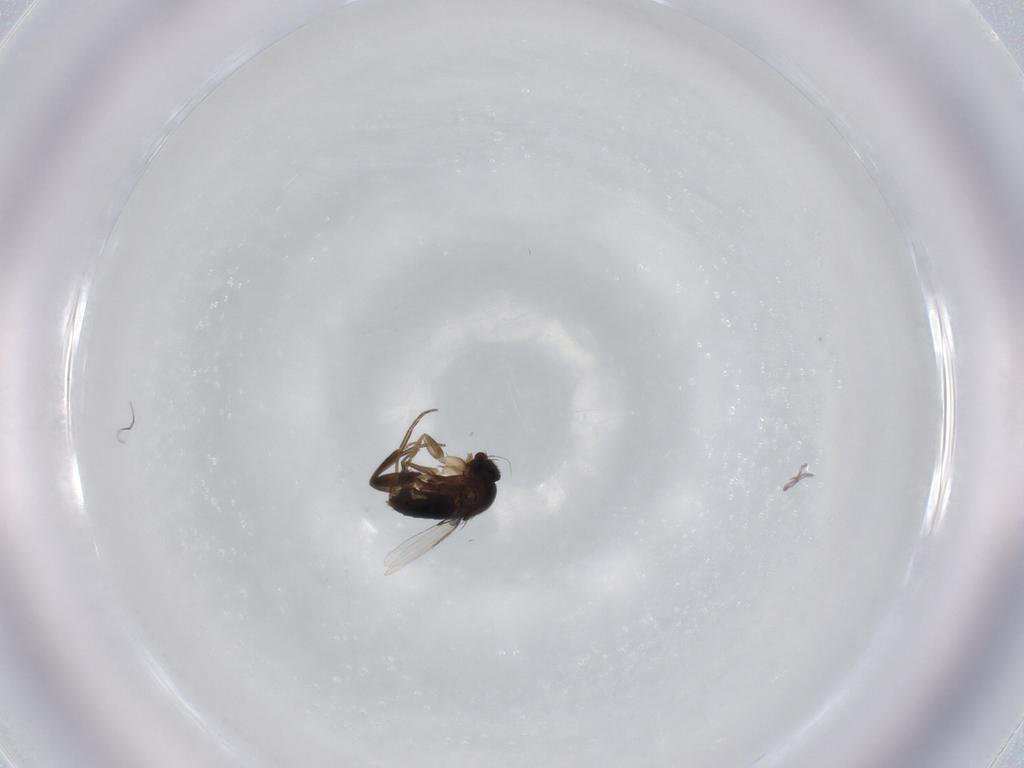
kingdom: Animalia
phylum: Arthropoda
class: Insecta
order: Diptera
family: Phoridae
